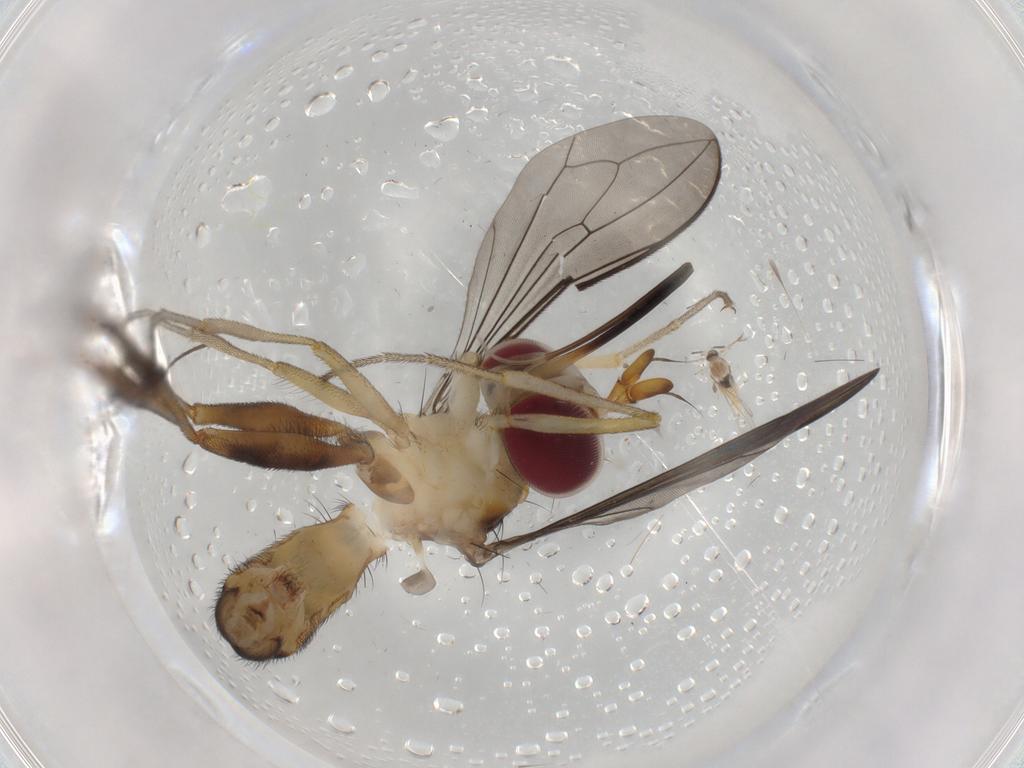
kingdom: Animalia
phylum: Arthropoda
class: Insecta
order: Diptera
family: Cecidomyiidae
